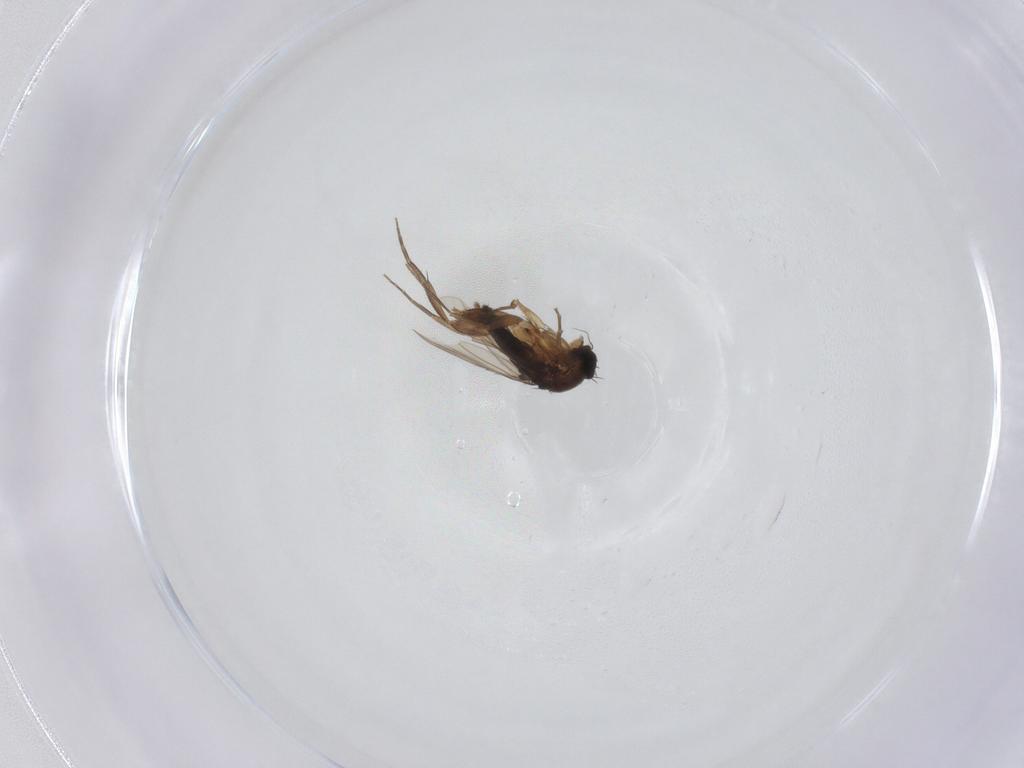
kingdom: Animalia
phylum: Arthropoda
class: Insecta
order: Diptera
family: Phoridae
